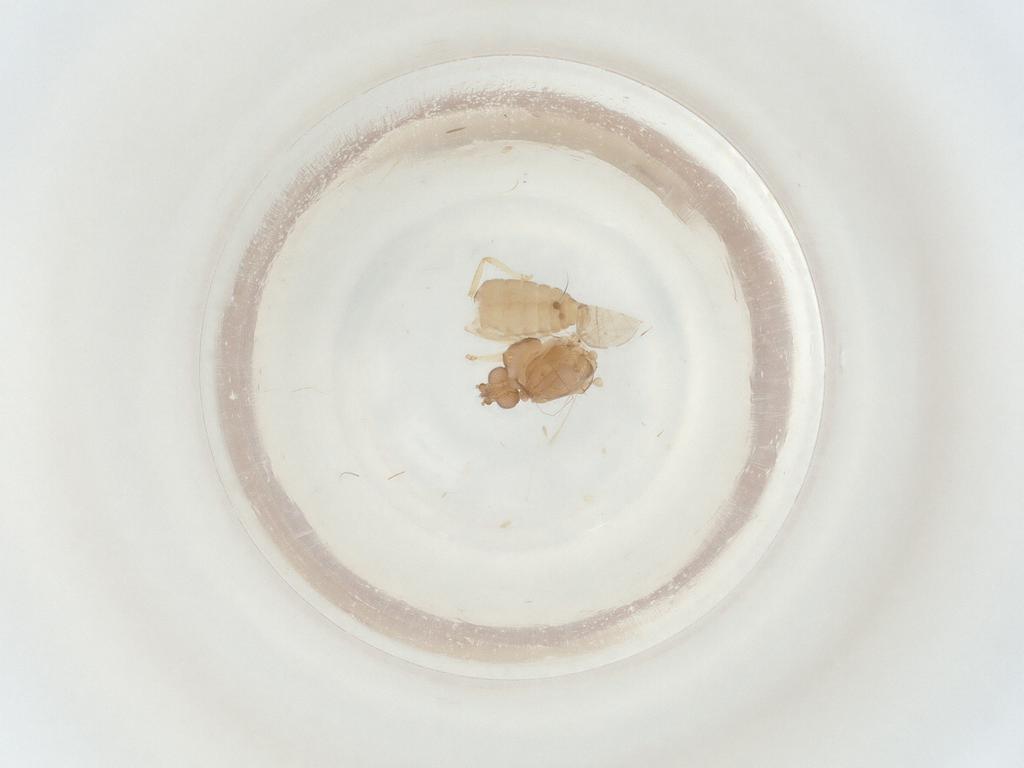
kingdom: Animalia
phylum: Arthropoda
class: Insecta
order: Diptera
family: Ceratopogonidae
